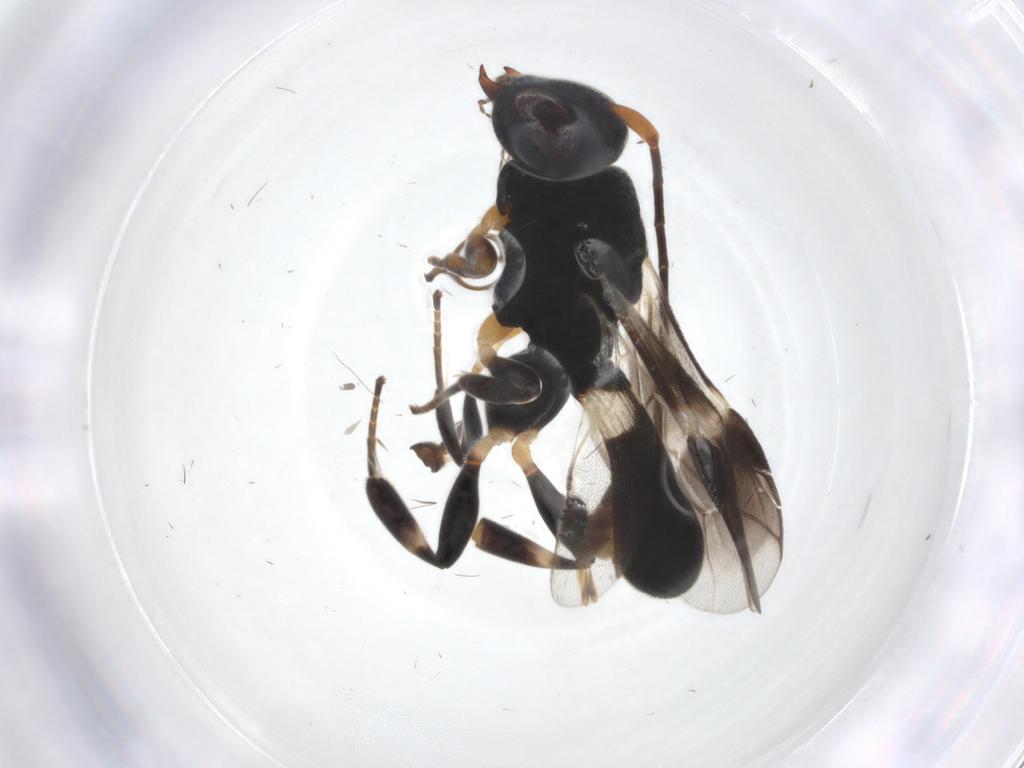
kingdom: Animalia
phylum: Arthropoda
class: Insecta
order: Hymenoptera
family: Braconidae
